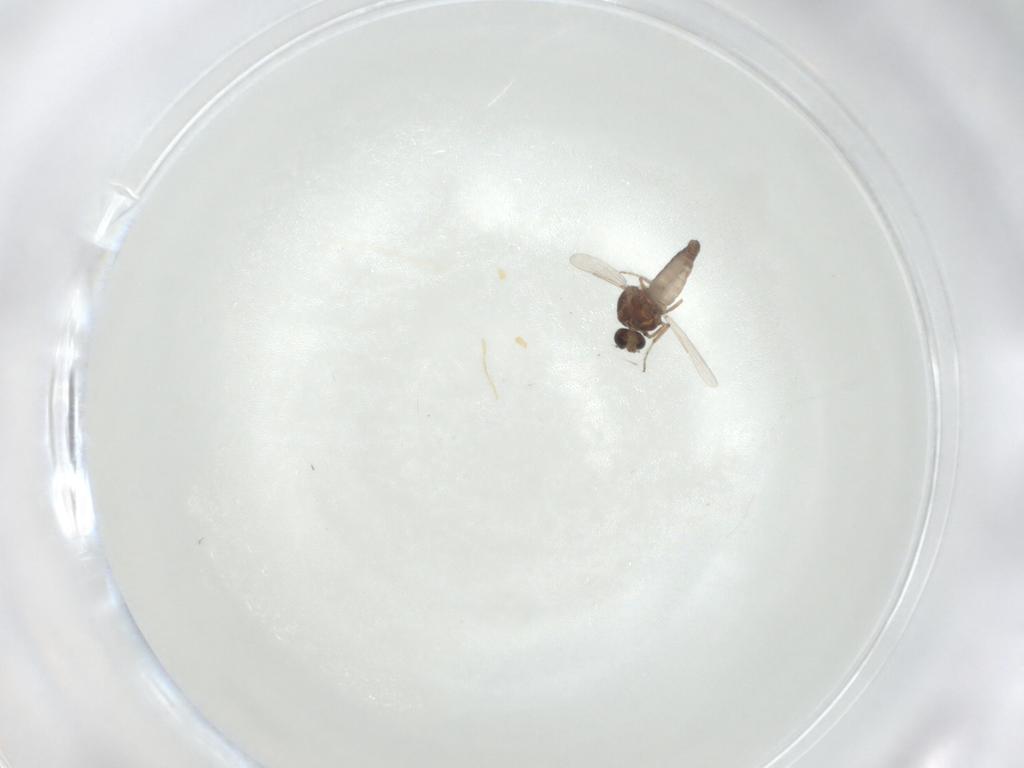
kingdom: Animalia
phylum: Arthropoda
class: Insecta
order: Diptera
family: Ceratopogonidae
